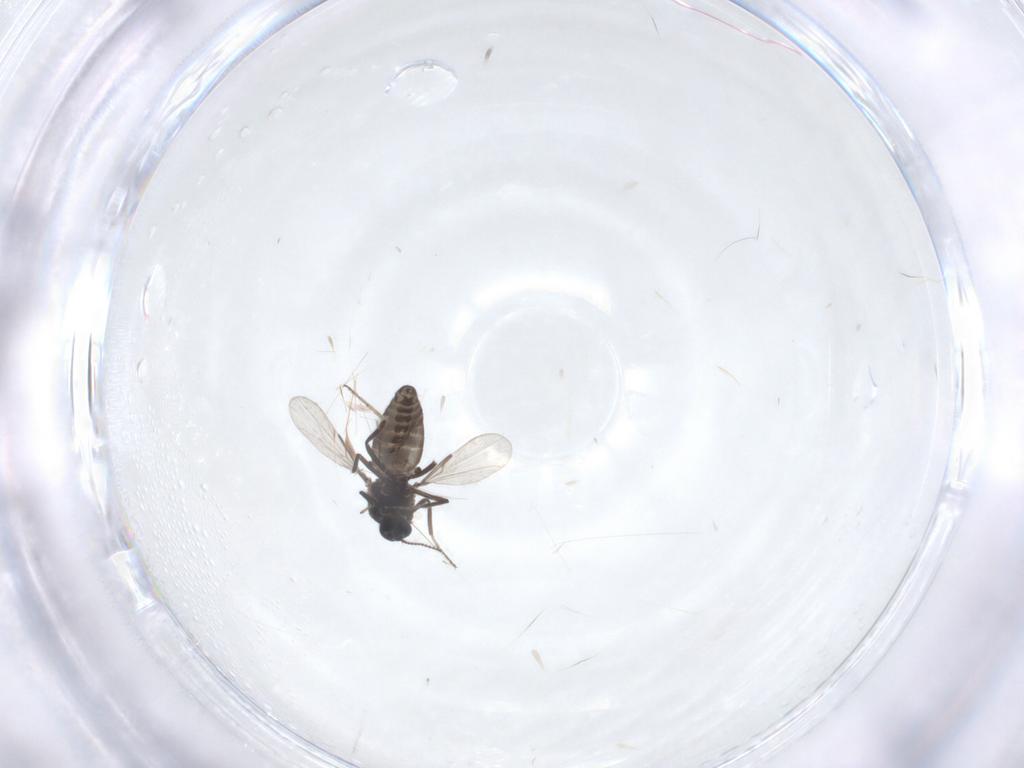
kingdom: Animalia
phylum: Arthropoda
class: Insecta
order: Diptera
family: Ceratopogonidae
